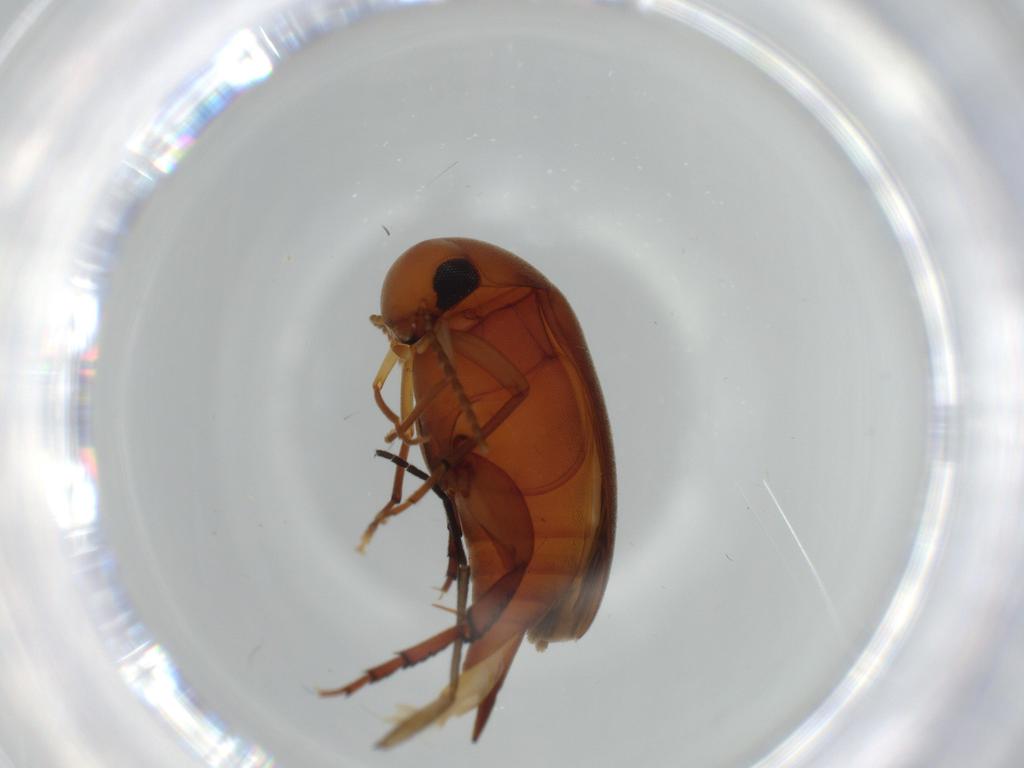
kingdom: Animalia
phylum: Arthropoda
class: Insecta
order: Coleoptera
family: Mordellidae
